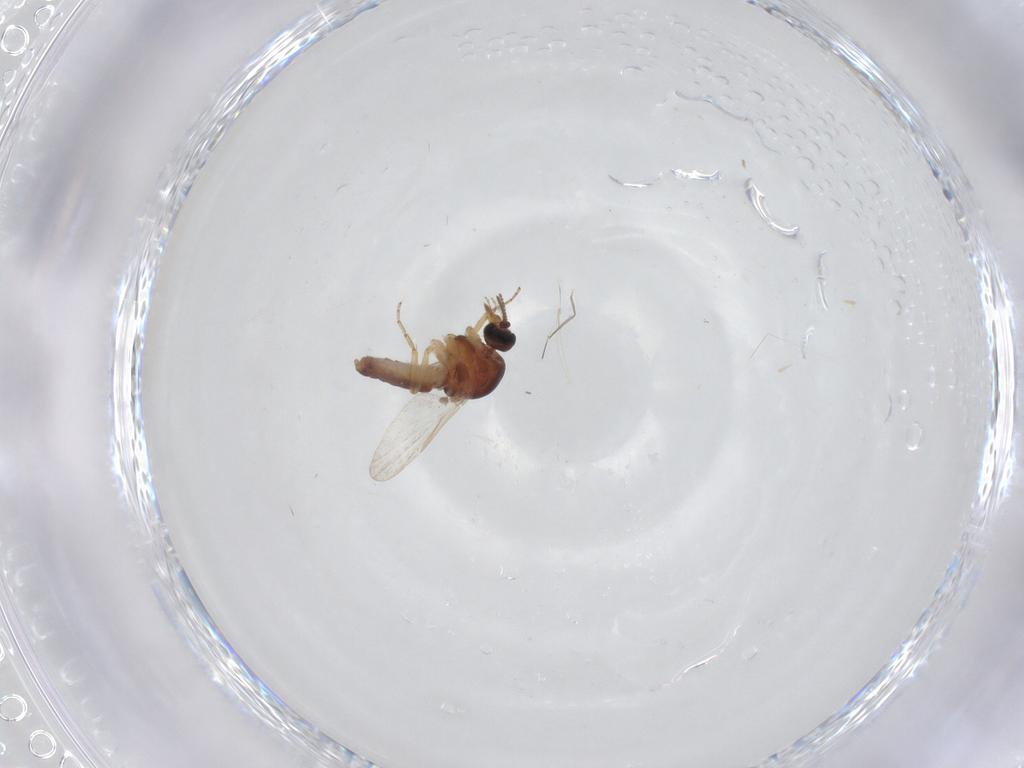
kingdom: Animalia
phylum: Arthropoda
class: Insecta
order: Diptera
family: Ceratopogonidae
